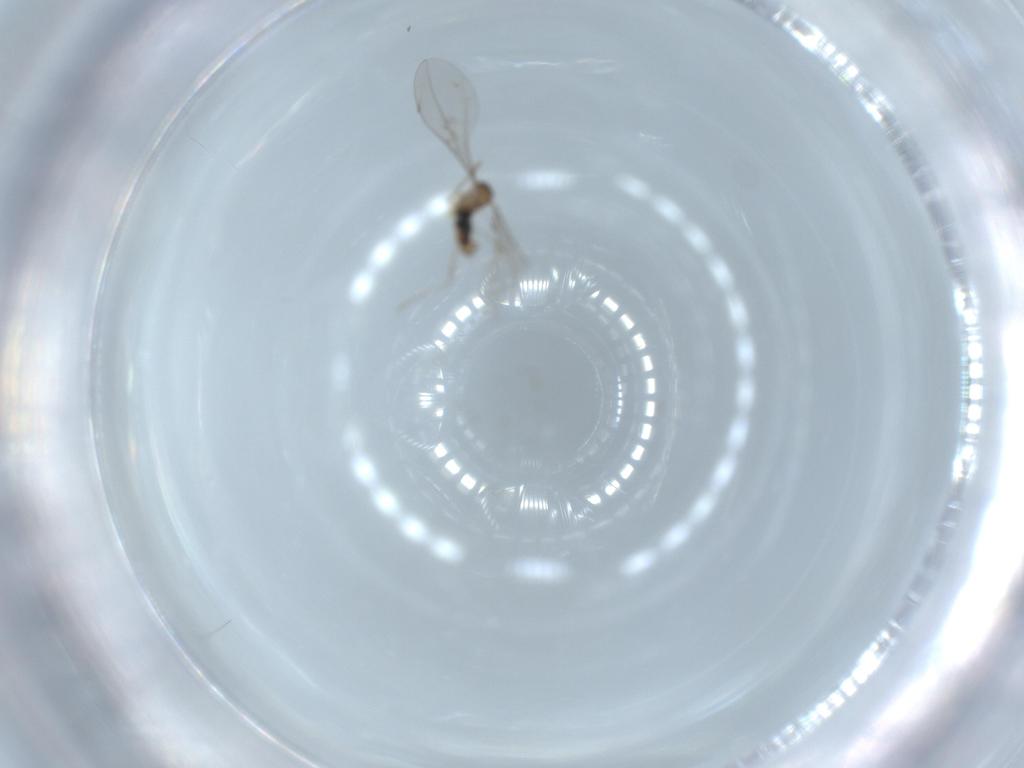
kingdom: Animalia
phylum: Arthropoda
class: Insecta
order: Diptera
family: Cecidomyiidae
